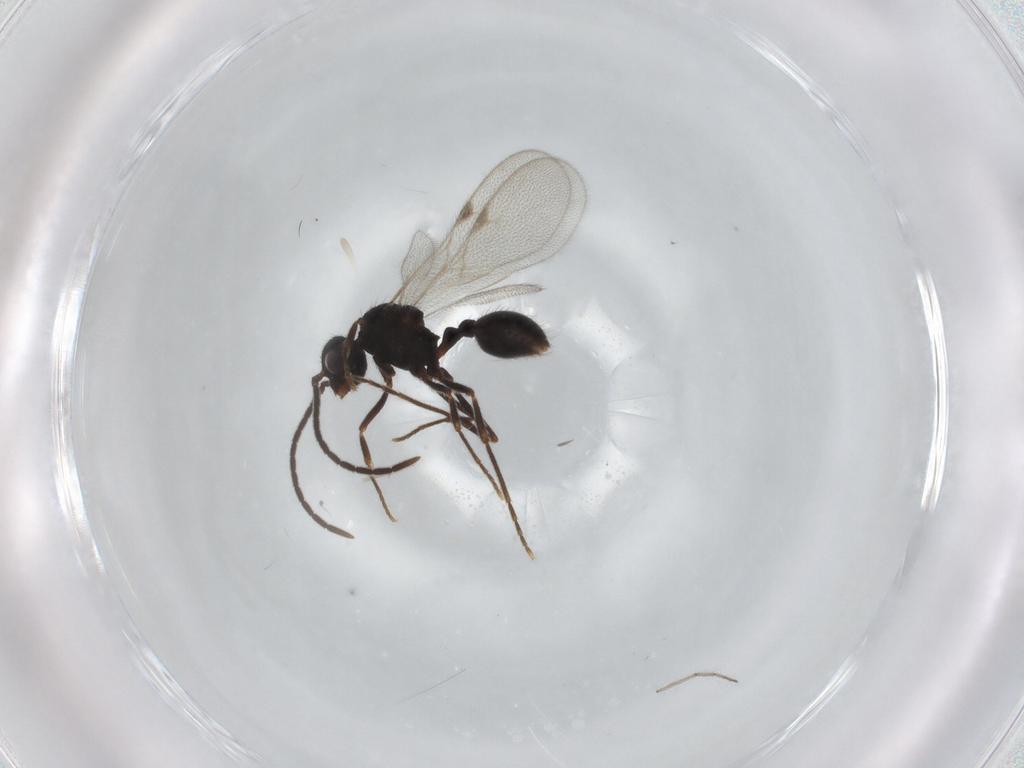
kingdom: Animalia
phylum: Arthropoda
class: Insecta
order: Hymenoptera
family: Formicidae
